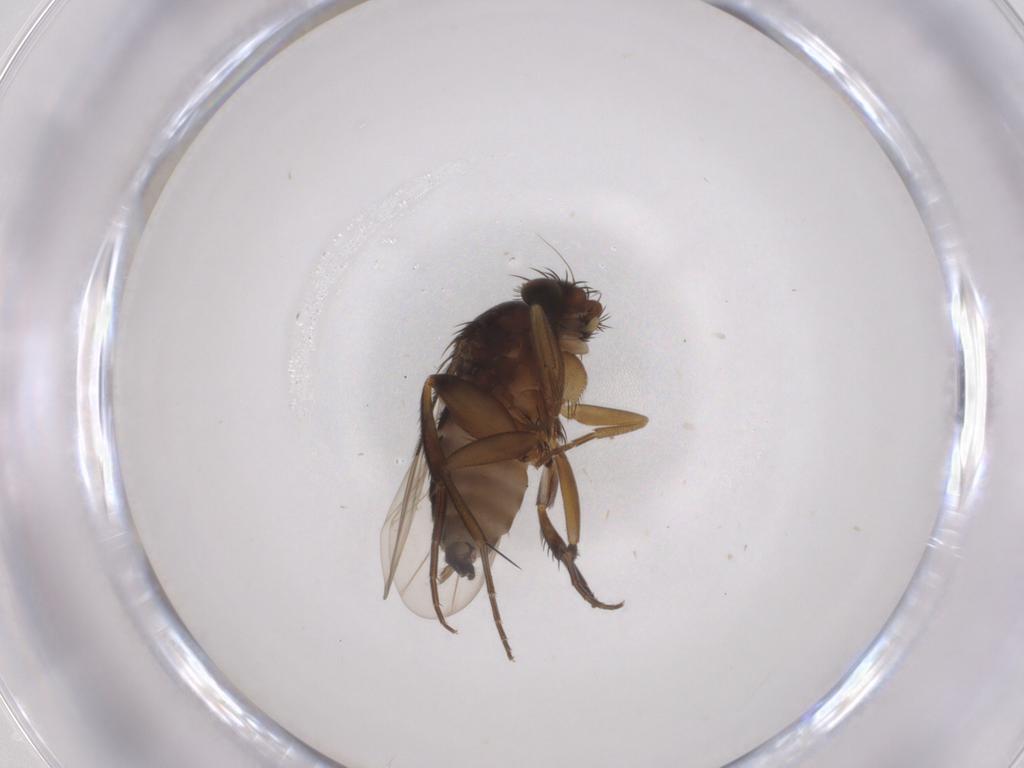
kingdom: Animalia
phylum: Arthropoda
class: Insecta
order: Diptera
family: Phoridae
